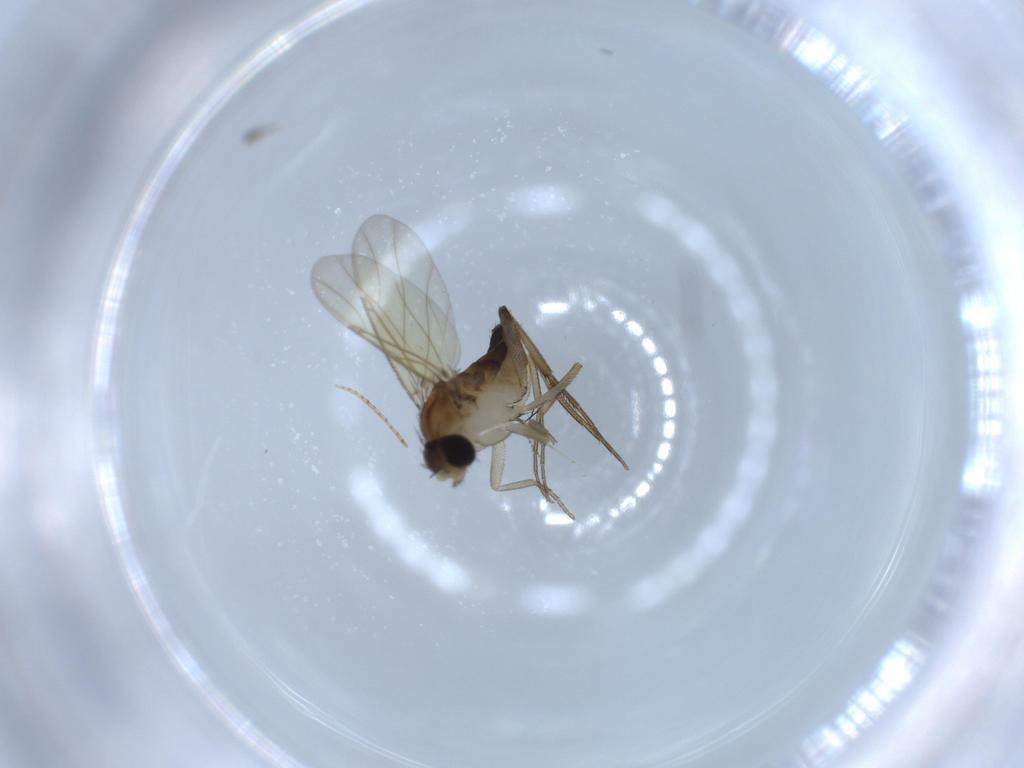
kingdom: Animalia
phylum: Arthropoda
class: Insecta
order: Diptera
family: Phoridae
